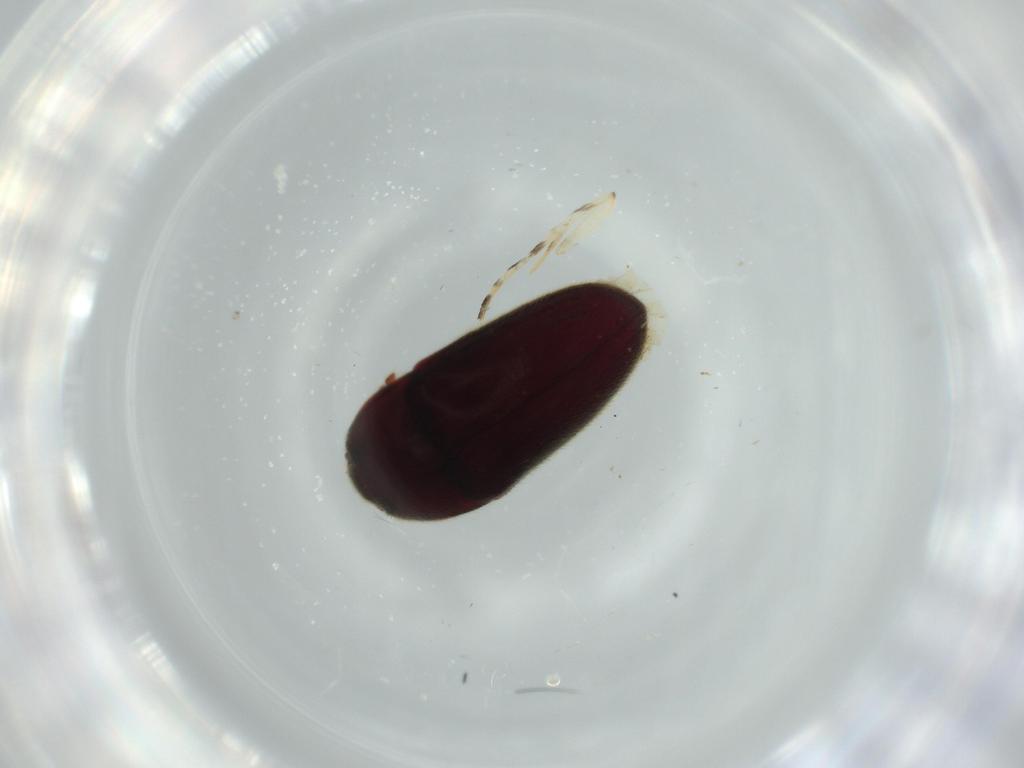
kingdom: Animalia
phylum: Arthropoda
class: Insecta
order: Coleoptera
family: Throscidae
